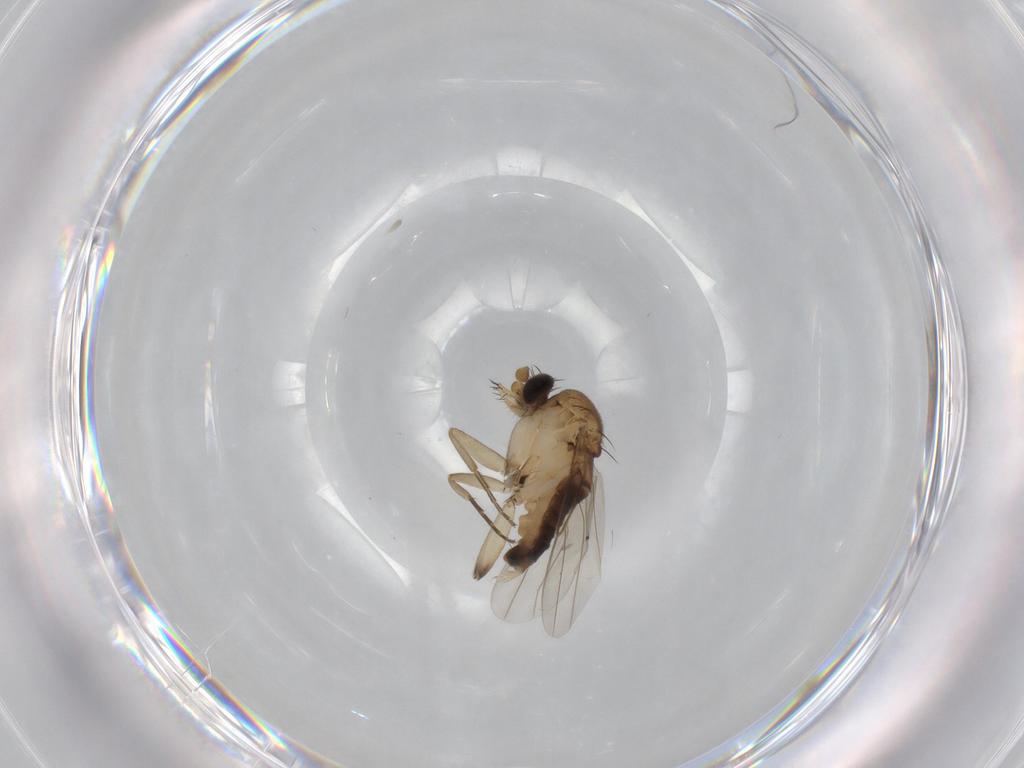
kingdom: Animalia
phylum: Arthropoda
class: Insecta
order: Diptera
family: Phoridae
